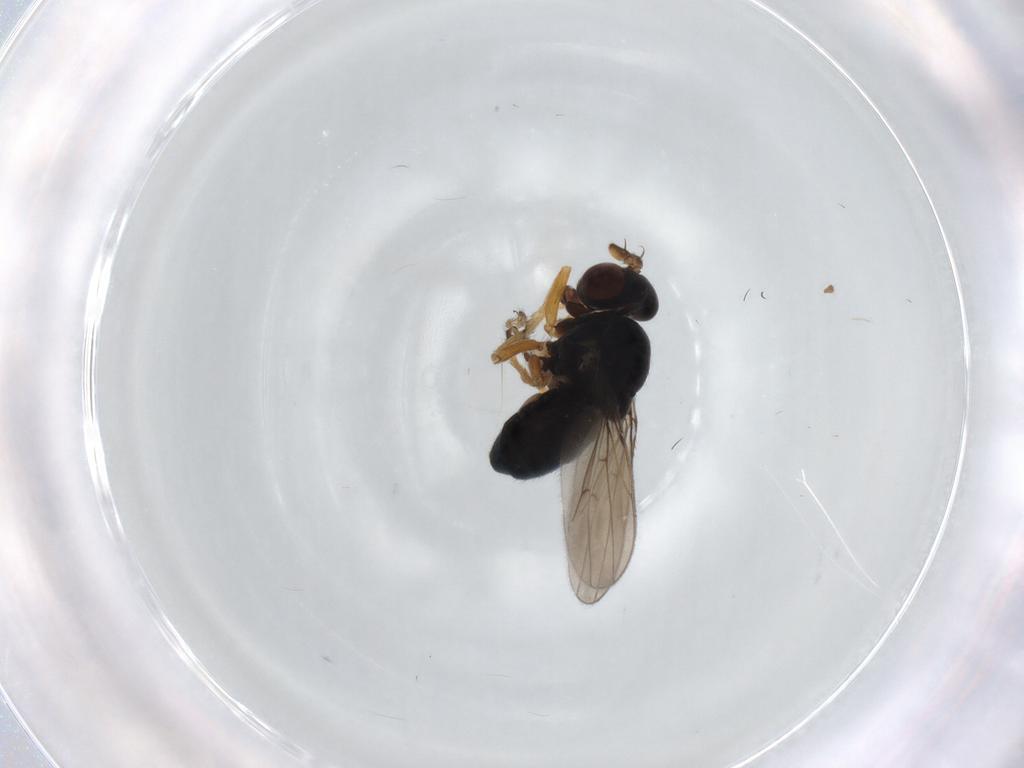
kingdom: Animalia
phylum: Arthropoda
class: Insecta
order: Diptera
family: Ephydridae
